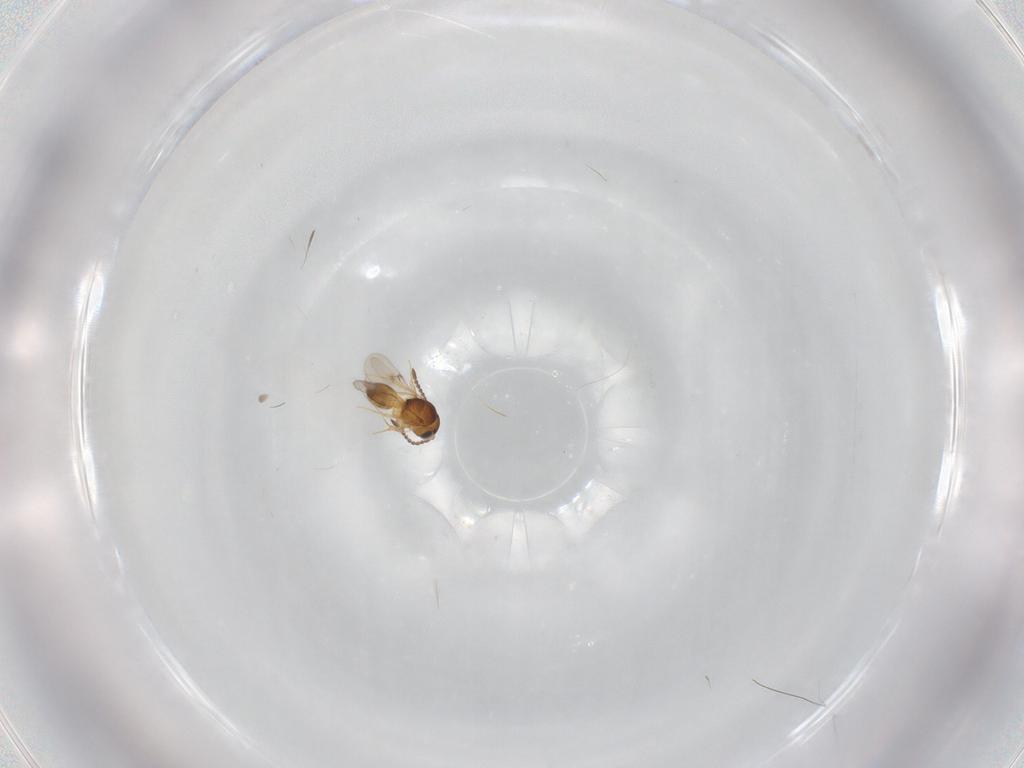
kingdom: Animalia
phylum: Arthropoda
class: Insecta
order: Hymenoptera
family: Scelionidae
